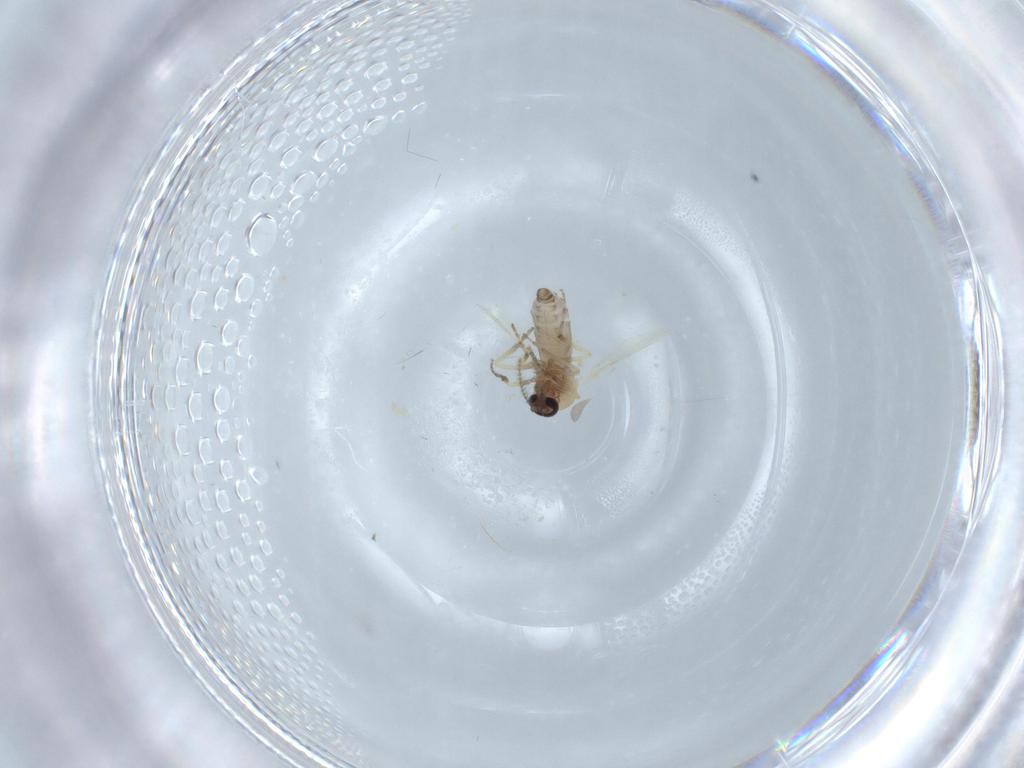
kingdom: Animalia
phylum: Arthropoda
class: Insecta
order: Diptera
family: Ceratopogonidae
